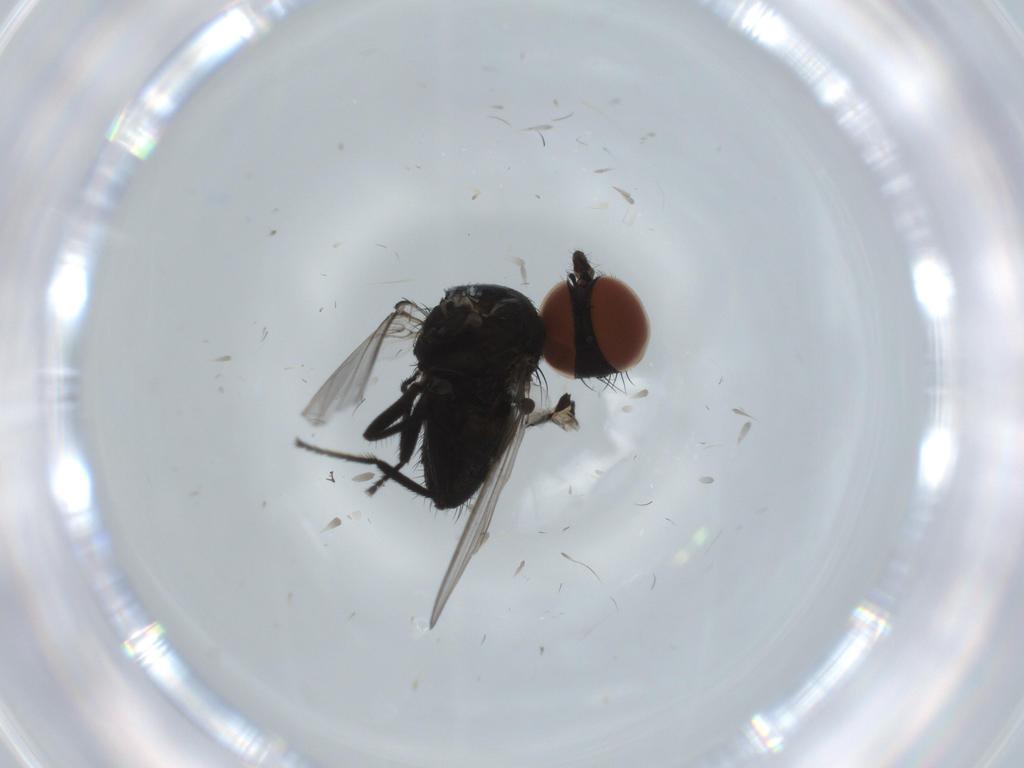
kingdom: Animalia
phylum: Arthropoda
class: Insecta
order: Diptera
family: Milichiidae
